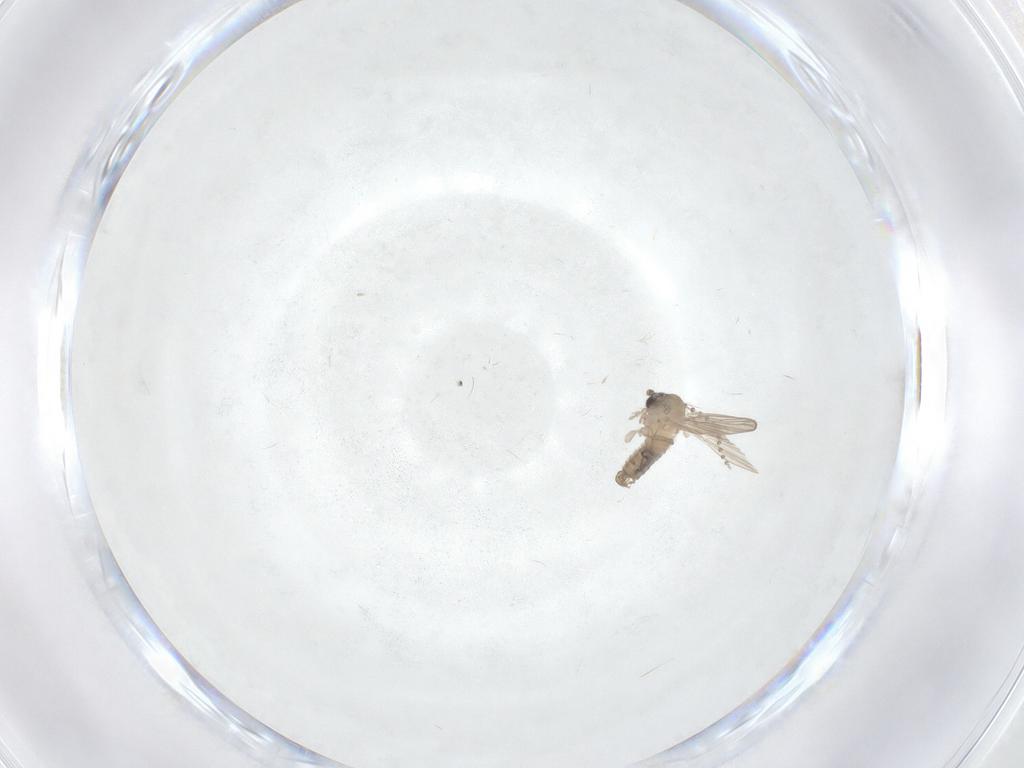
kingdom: Animalia
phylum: Arthropoda
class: Insecta
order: Diptera
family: Psychodidae
